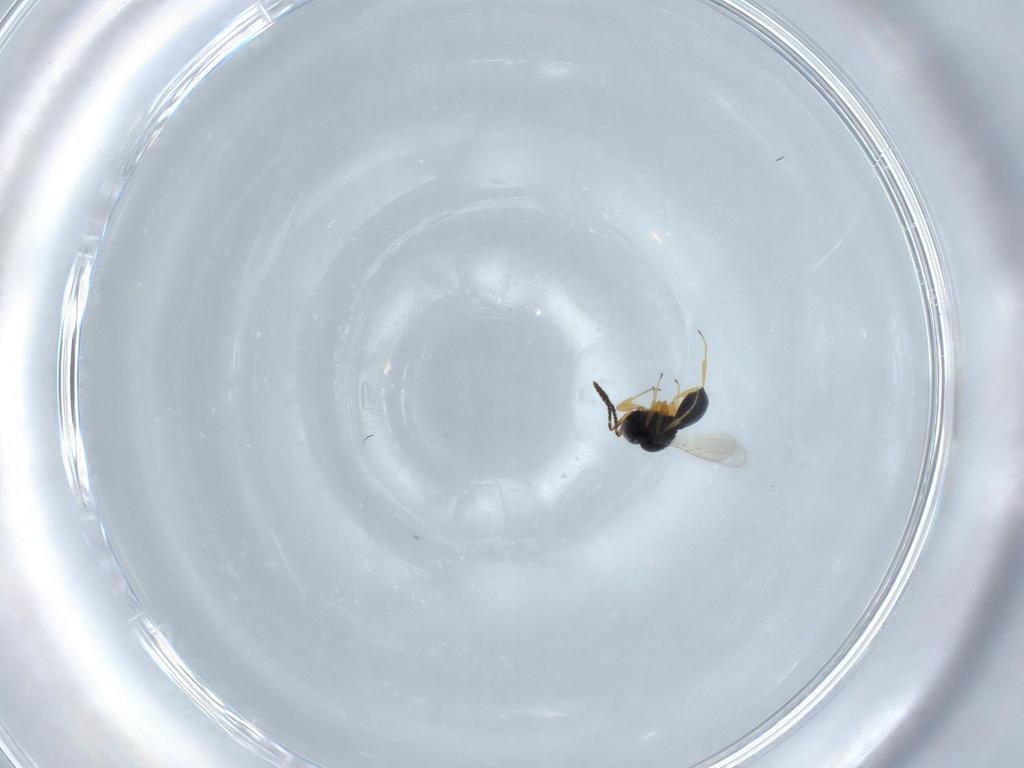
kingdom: Animalia
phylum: Arthropoda
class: Insecta
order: Hymenoptera
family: Scelionidae
